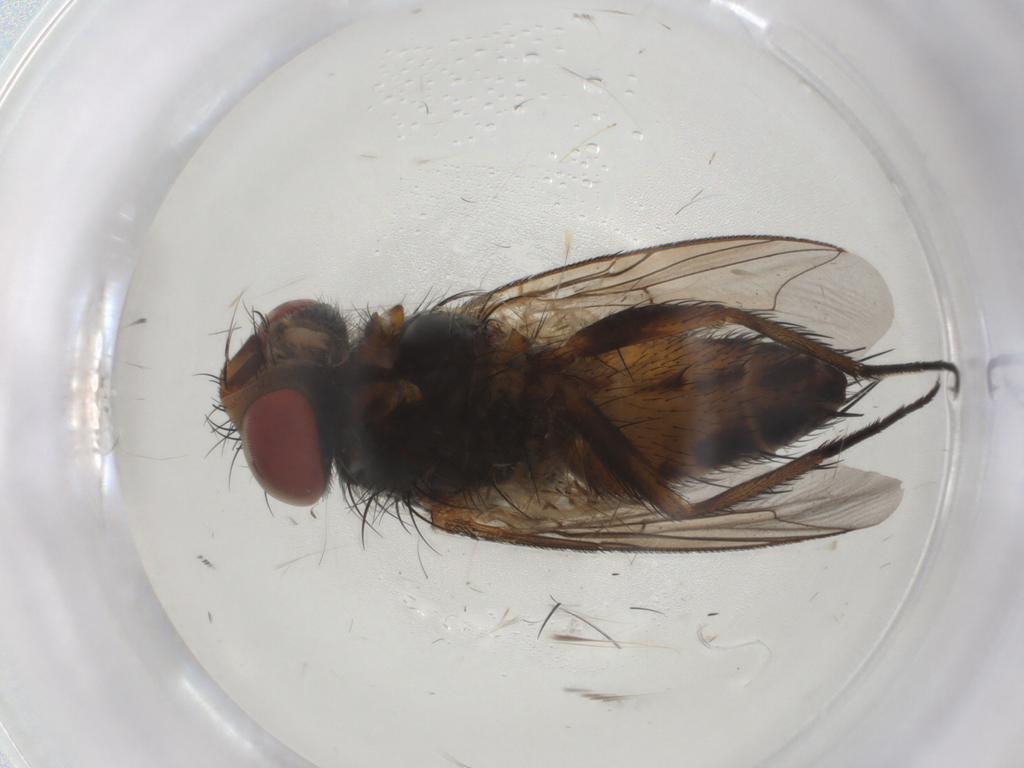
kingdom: Animalia
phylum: Arthropoda
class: Insecta
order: Diptera
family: Sarcophagidae
